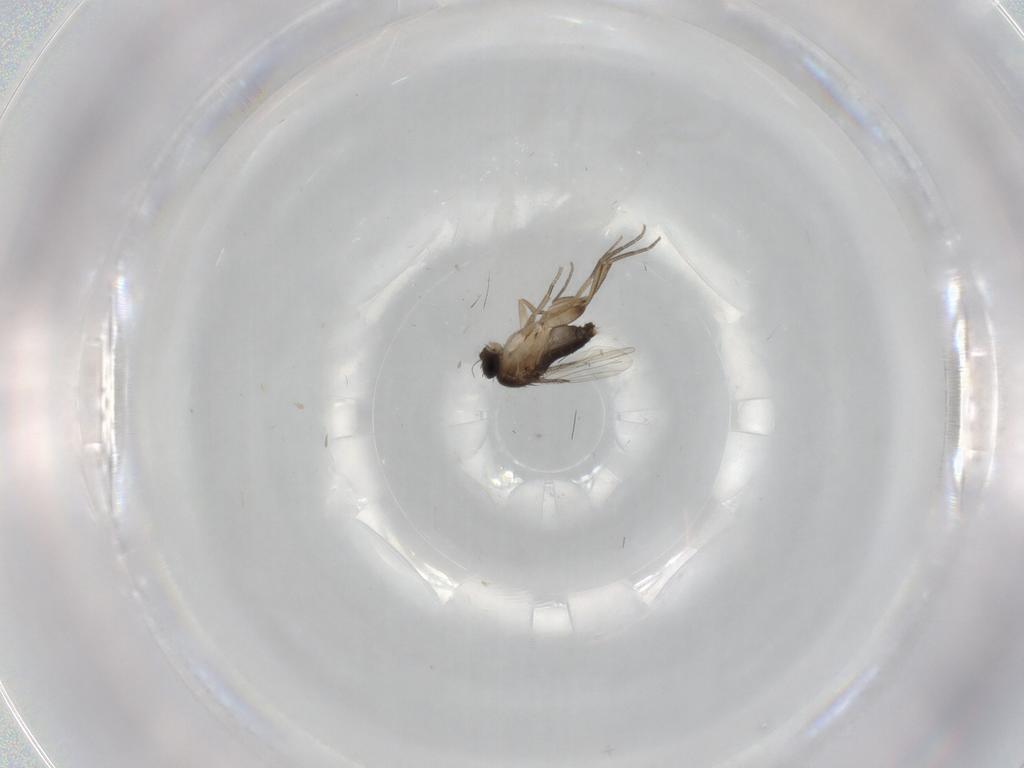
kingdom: Animalia
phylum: Arthropoda
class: Insecta
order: Diptera
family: Phoridae
